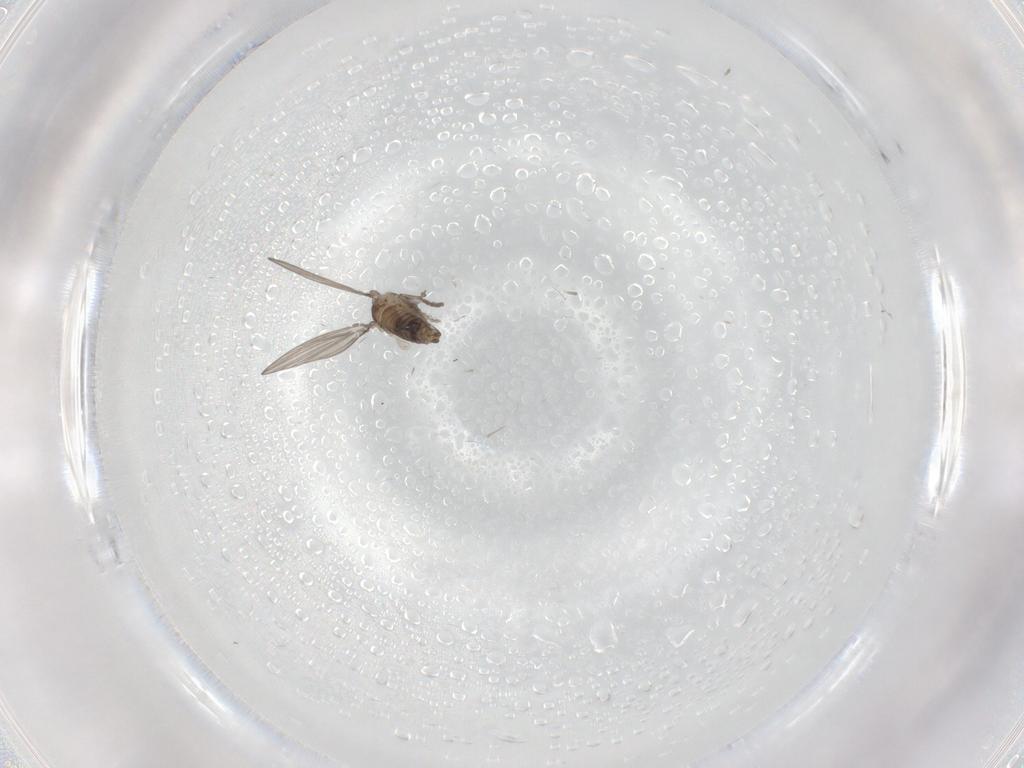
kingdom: Animalia
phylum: Arthropoda
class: Insecta
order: Diptera
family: Psychodidae
